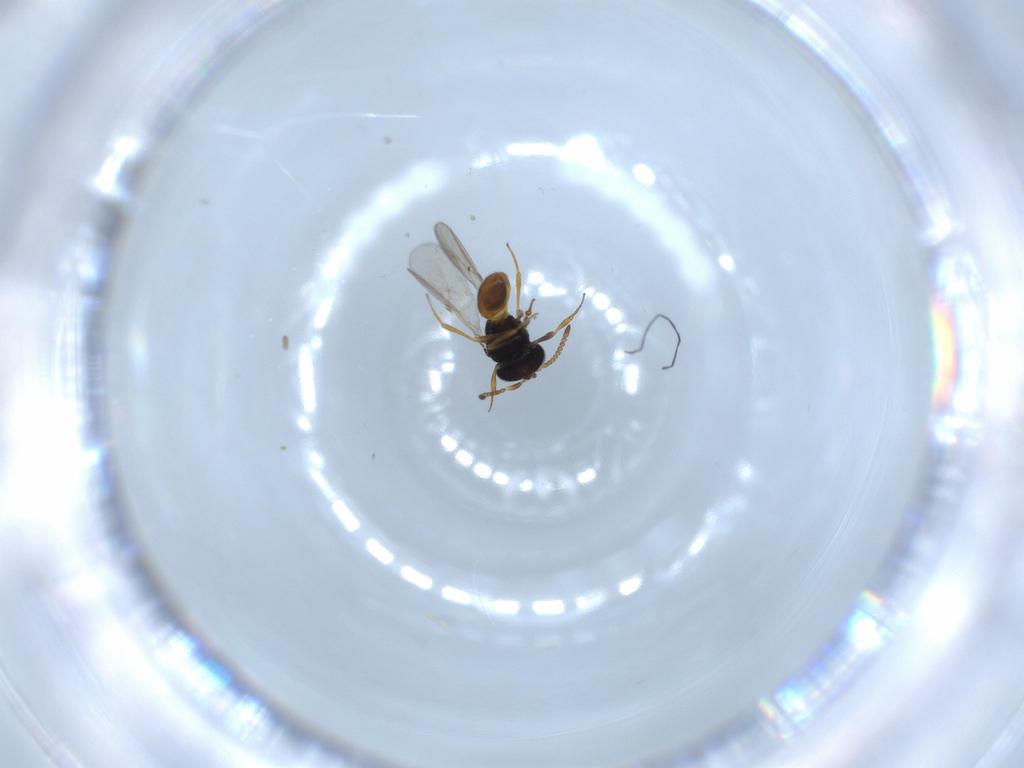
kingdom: Animalia
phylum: Arthropoda
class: Insecta
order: Hymenoptera
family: Scelionidae
